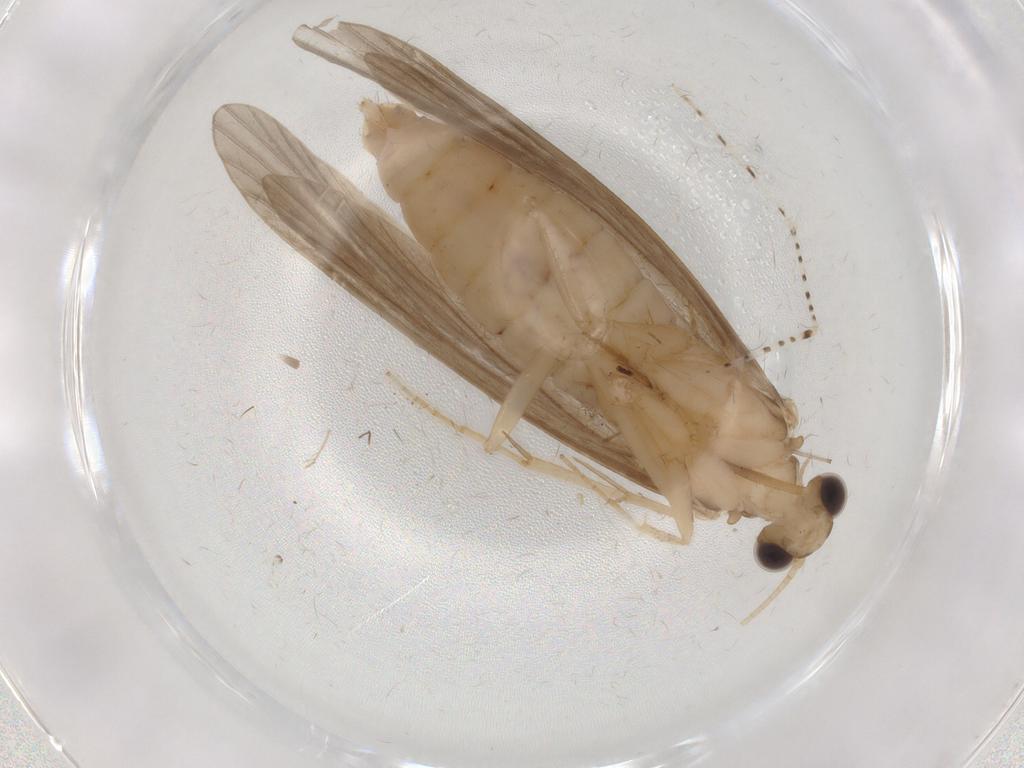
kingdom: Animalia
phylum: Arthropoda
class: Insecta
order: Trichoptera
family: Ecnomidae
